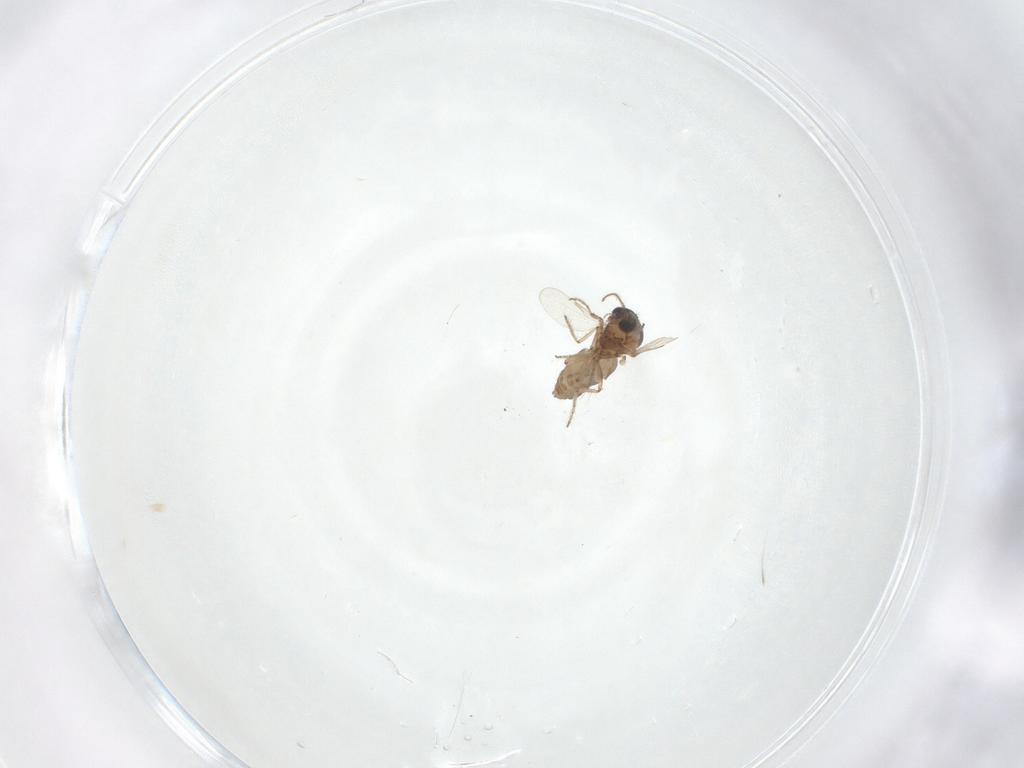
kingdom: Animalia
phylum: Arthropoda
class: Insecta
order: Diptera
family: Ceratopogonidae
